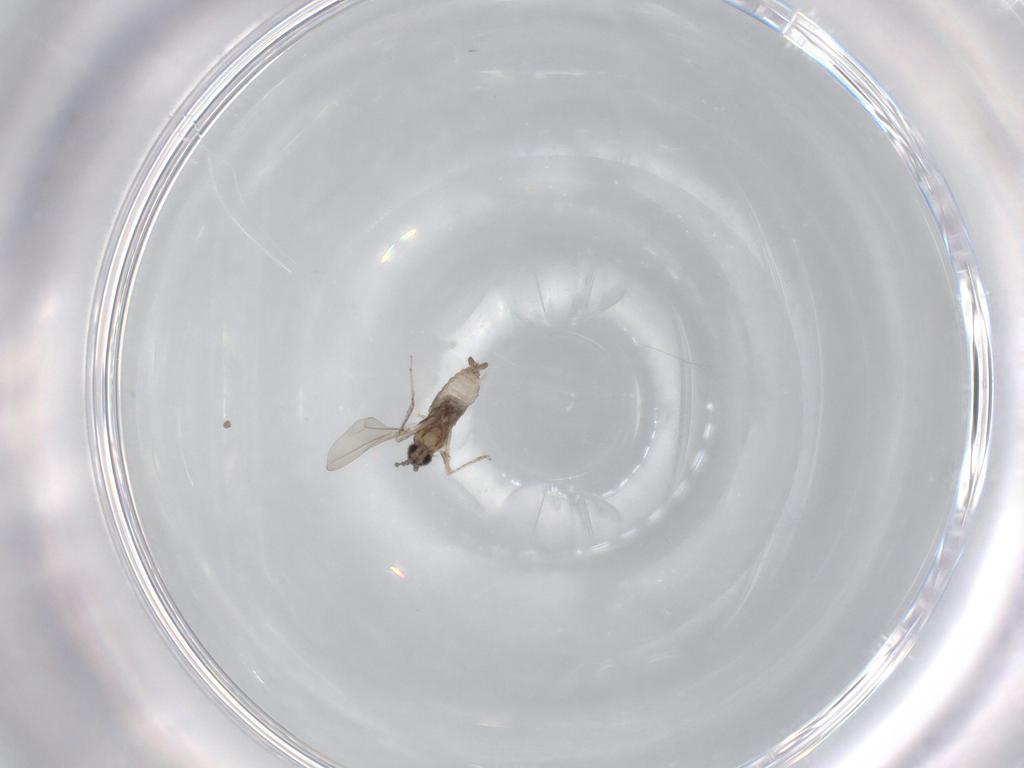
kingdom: Animalia
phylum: Arthropoda
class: Insecta
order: Diptera
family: Cecidomyiidae
